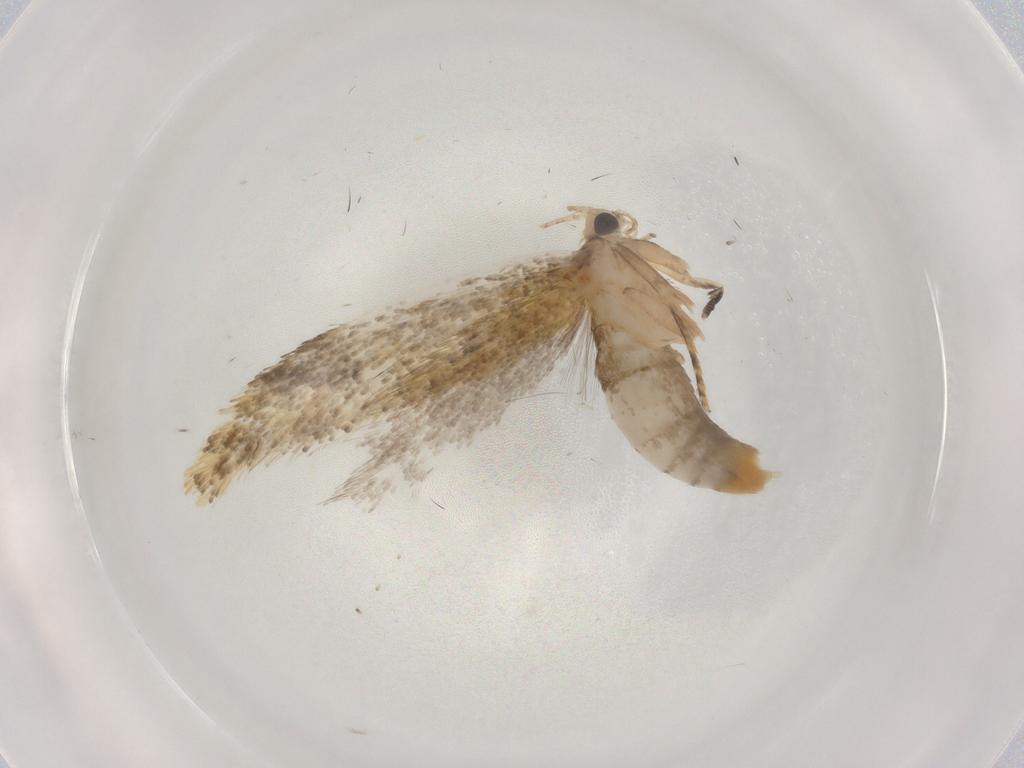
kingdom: Animalia
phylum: Arthropoda
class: Insecta
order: Lepidoptera
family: Tineidae
